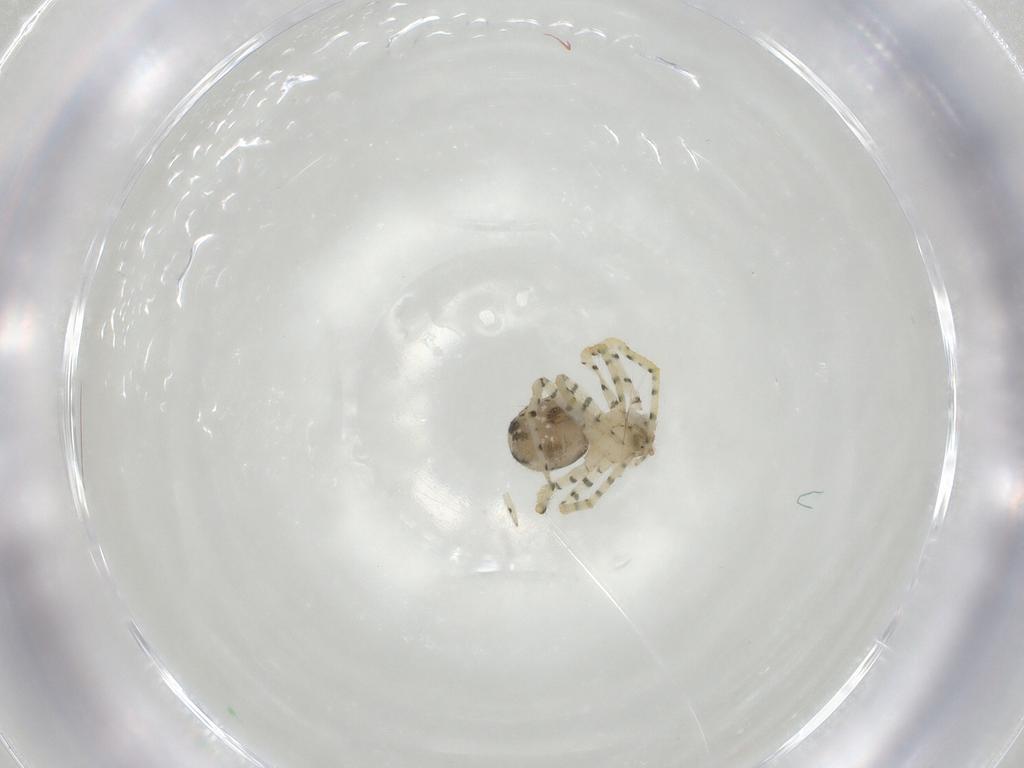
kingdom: Animalia
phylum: Arthropoda
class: Arachnida
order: Araneae
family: Theridiidae
